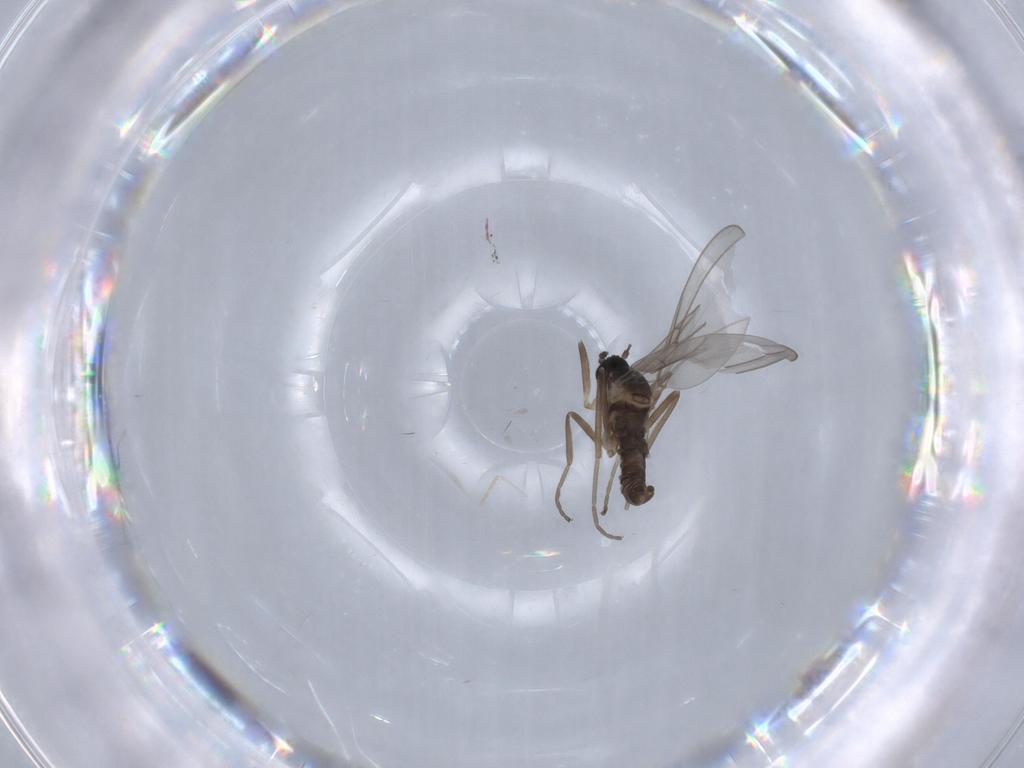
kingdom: Animalia
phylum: Arthropoda
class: Insecta
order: Diptera
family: Cecidomyiidae
